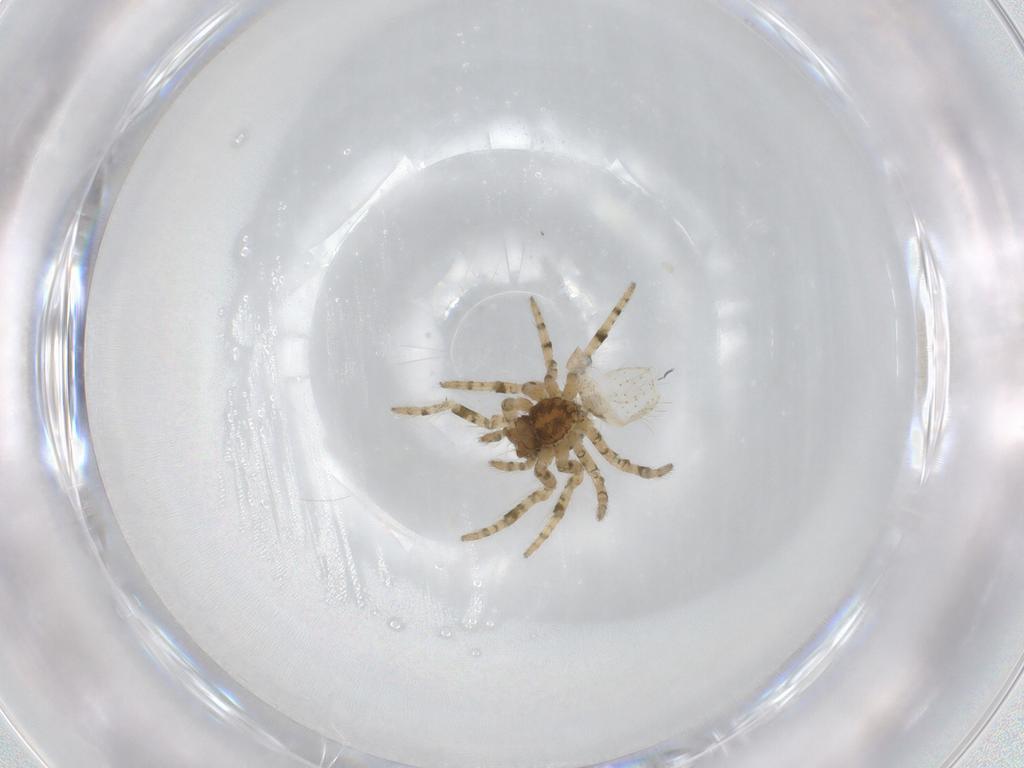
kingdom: Animalia
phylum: Arthropoda
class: Arachnida
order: Araneae
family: Araneidae
